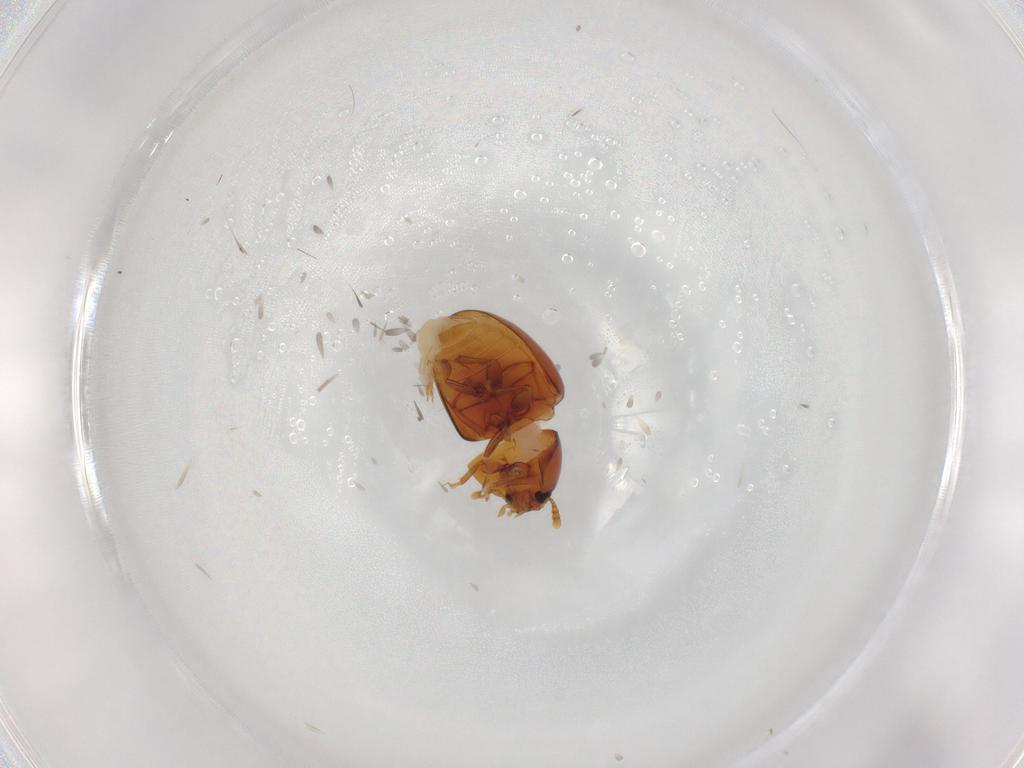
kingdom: Animalia
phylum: Arthropoda
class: Insecta
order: Coleoptera
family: Phalacridae
